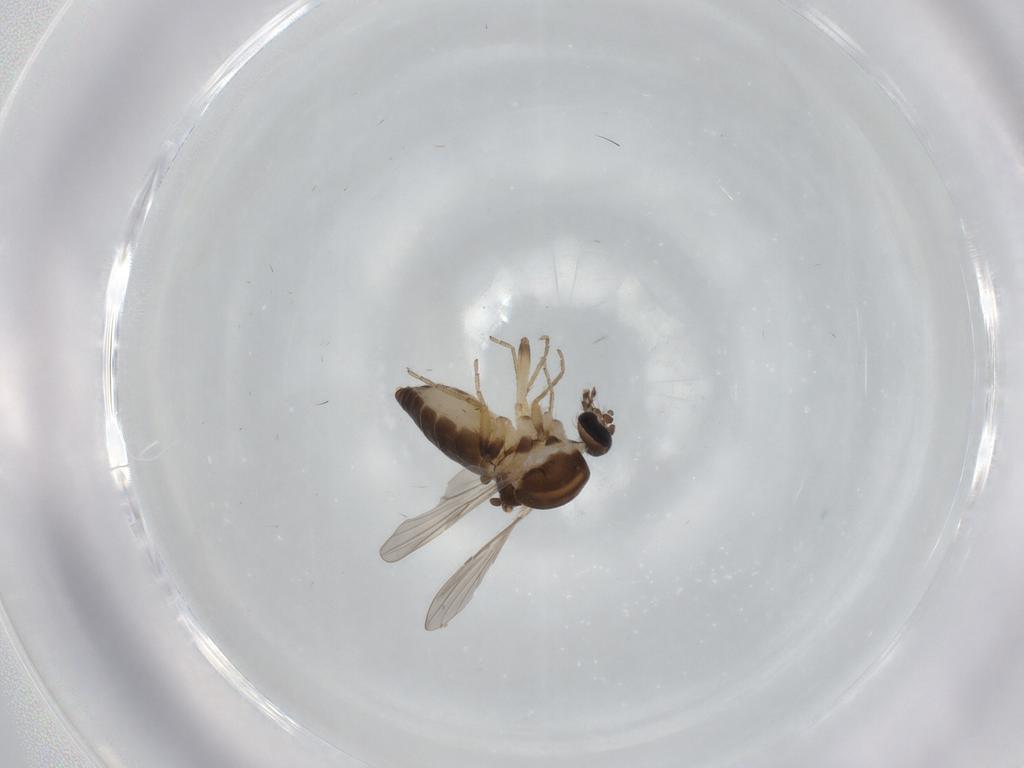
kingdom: Animalia
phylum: Arthropoda
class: Insecta
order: Diptera
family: Ceratopogonidae
